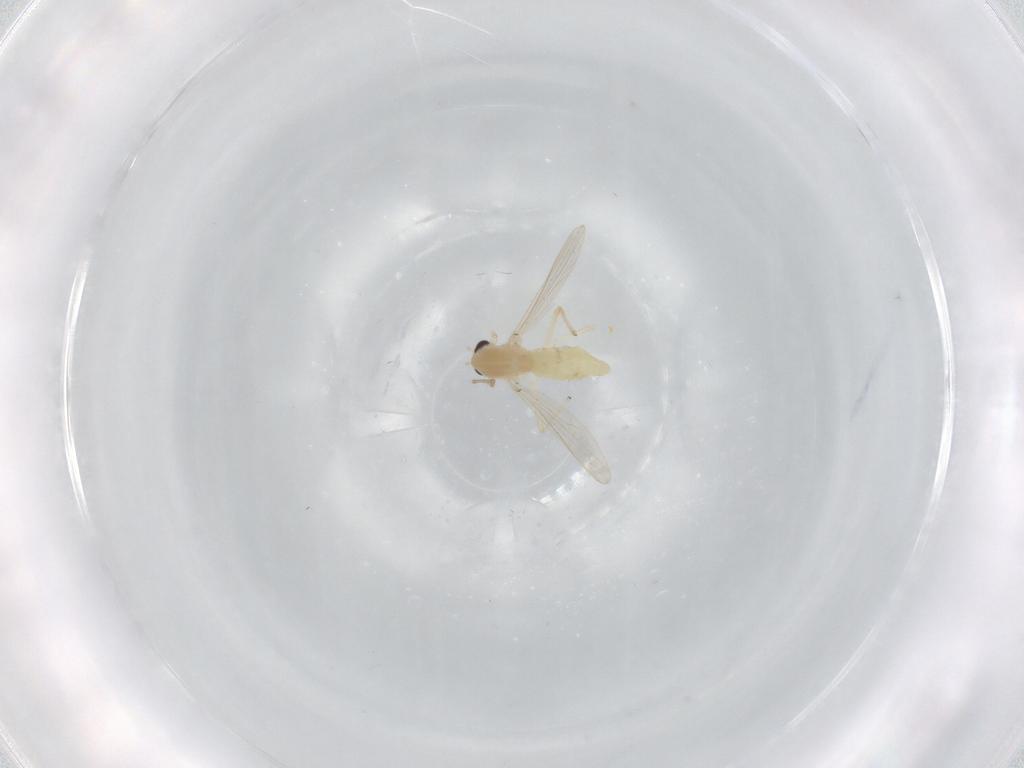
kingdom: Animalia
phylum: Arthropoda
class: Insecta
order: Diptera
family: Chironomidae
